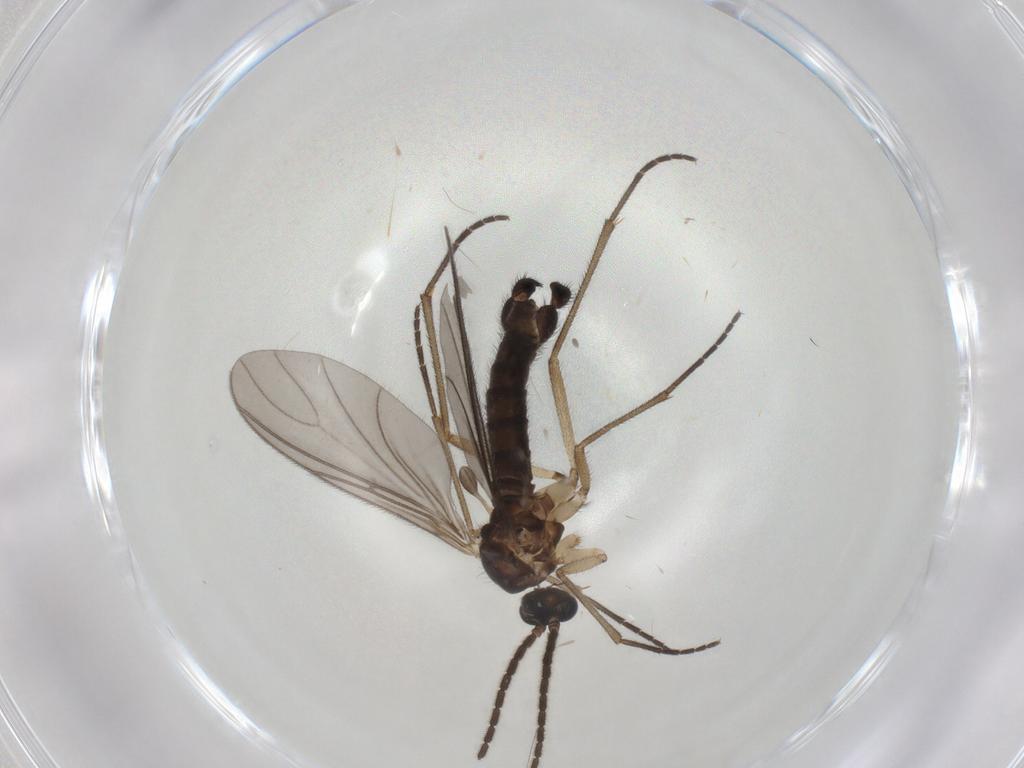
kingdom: Animalia
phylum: Arthropoda
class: Insecta
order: Diptera
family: Sciaridae
